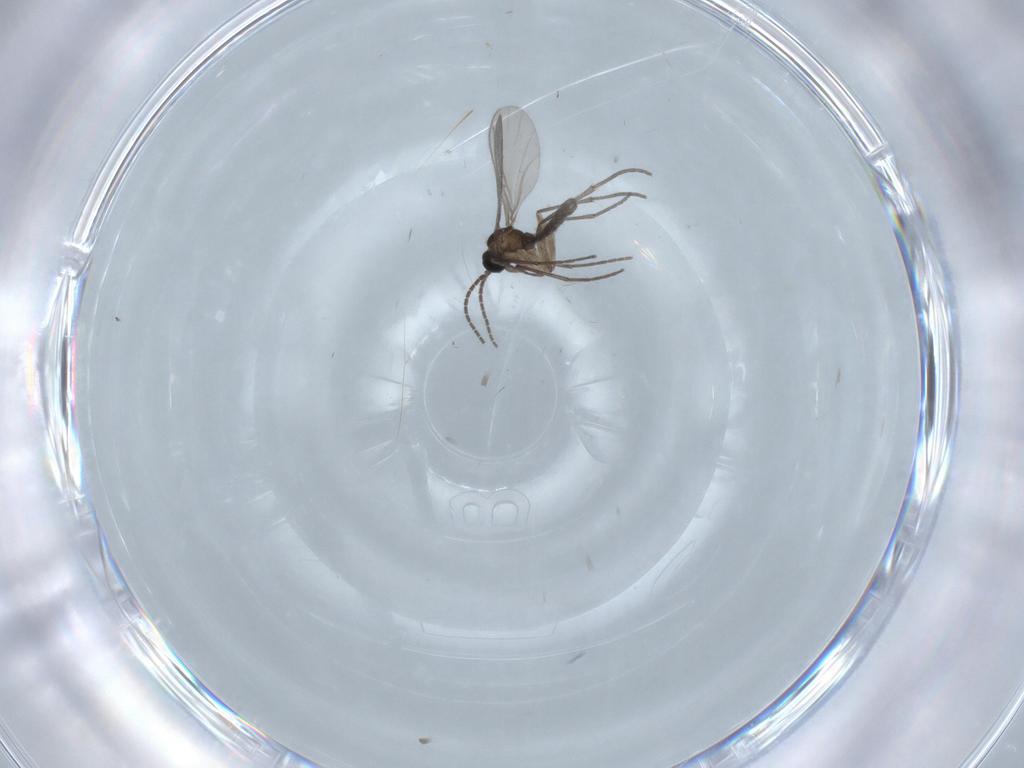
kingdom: Animalia
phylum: Arthropoda
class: Insecta
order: Diptera
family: Sciaridae
